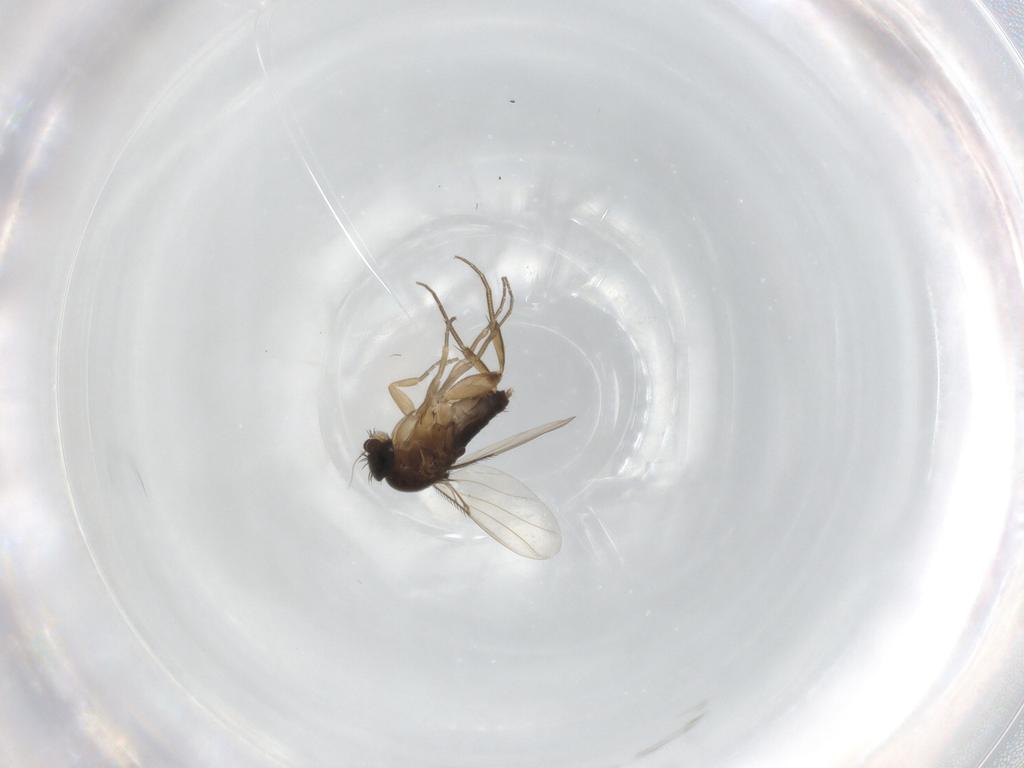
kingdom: Animalia
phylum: Arthropoda
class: Insecta
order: Diptera
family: Phoridae
